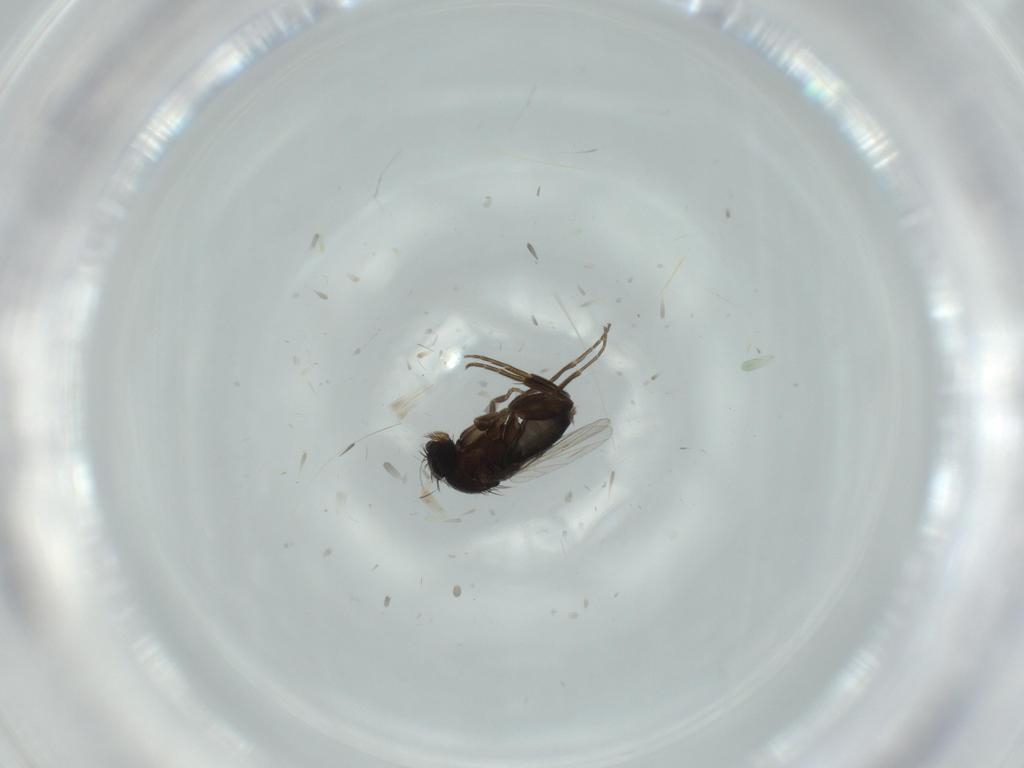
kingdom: Animalia
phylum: Arthropoda
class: Insecta
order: Diptera
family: Phoridae
